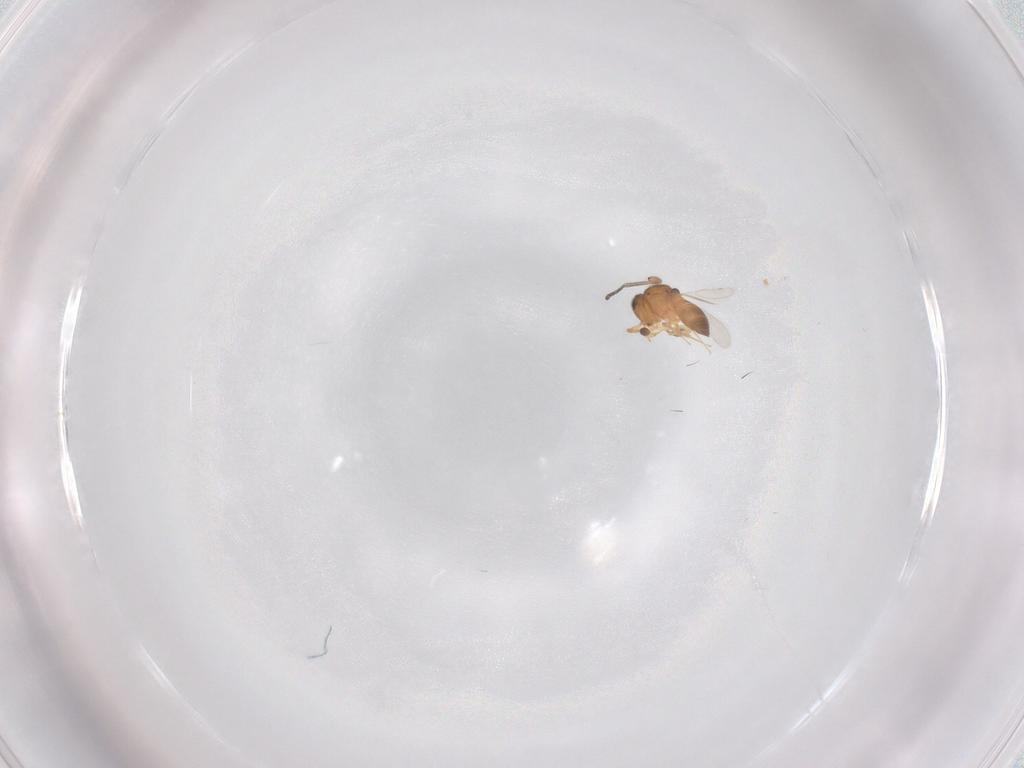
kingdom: Animalia
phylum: Arthropoda
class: Insecta
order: Hymenoptera
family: Scelionidae
